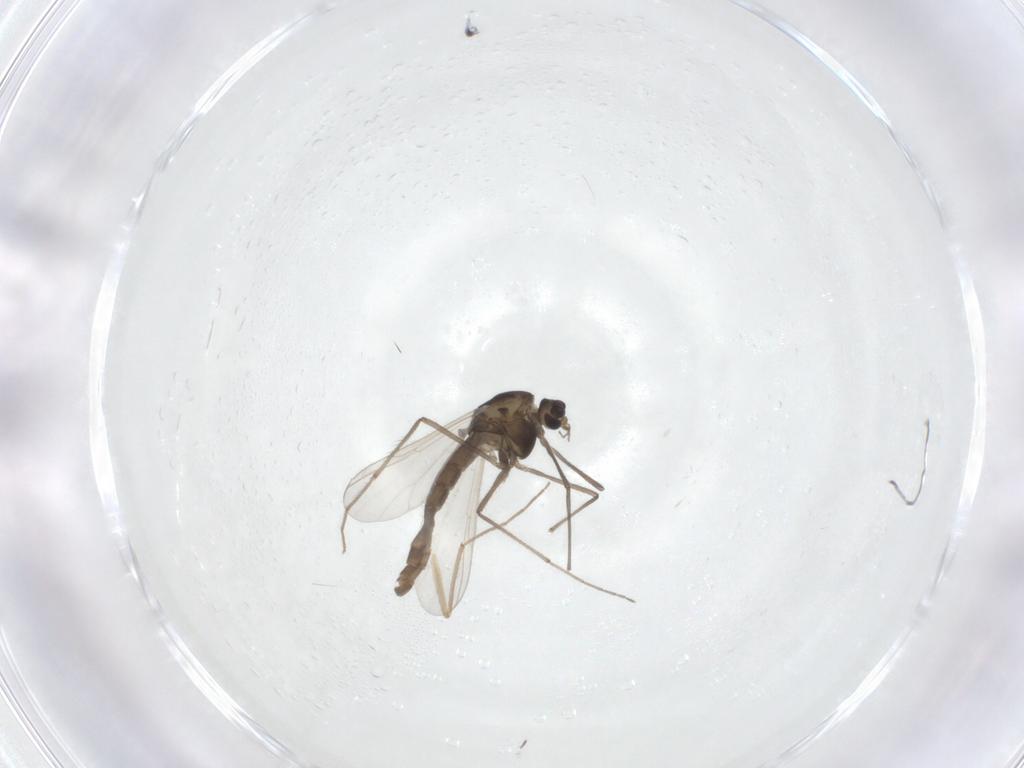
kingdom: Animalia
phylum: Arthropoda
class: Insecta
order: Diptera
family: Chironomidae
